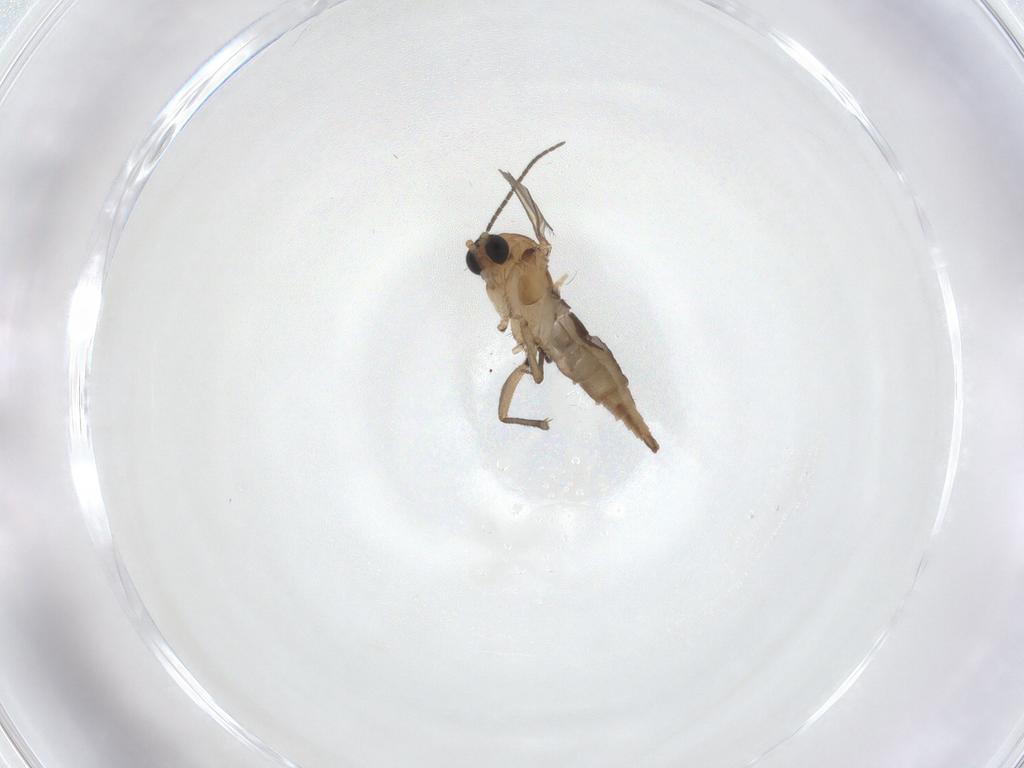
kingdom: Animalia
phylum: Arthropoda
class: Insecta
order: Diptera
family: Sciaridae
